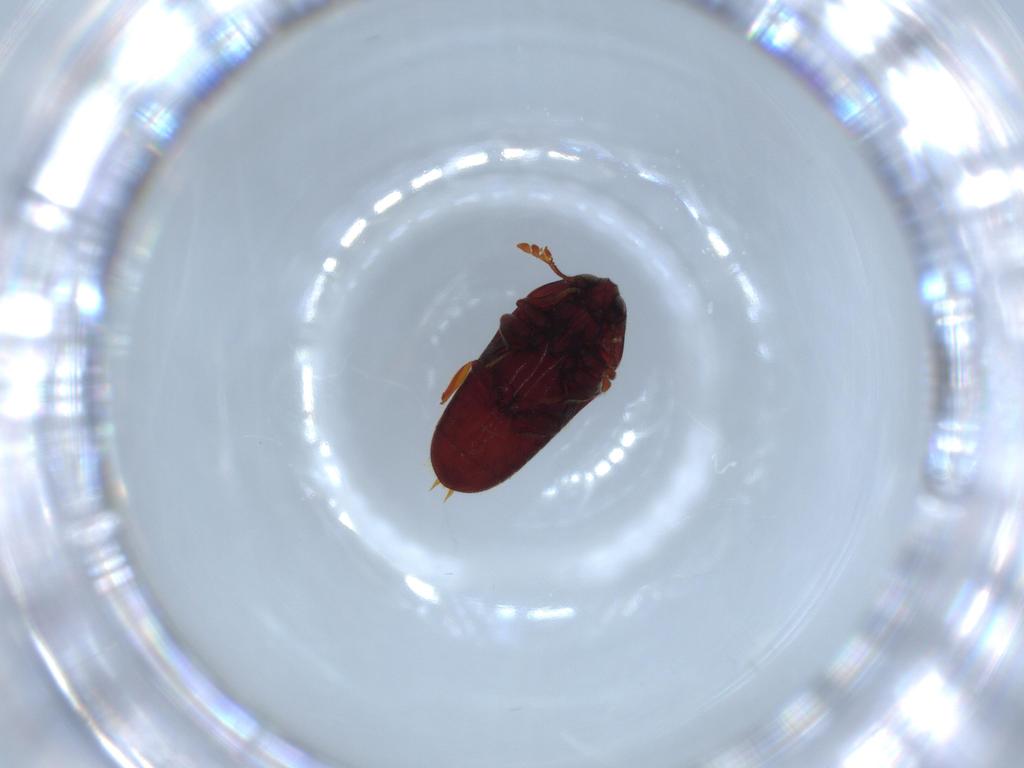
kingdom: Animalia
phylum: Arthropoda
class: Insecta
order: Coleoptera
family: Throscidae
